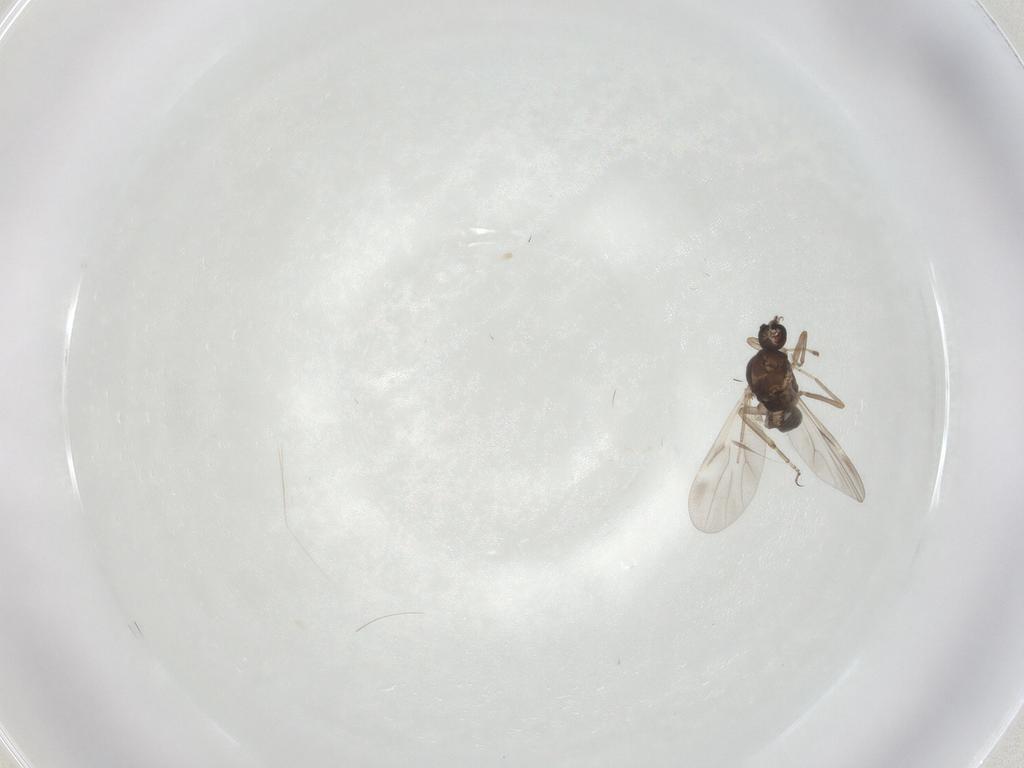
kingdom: Animalia
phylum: Arthropoda
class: Insecta
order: Diptera
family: Ceratopogonidae
